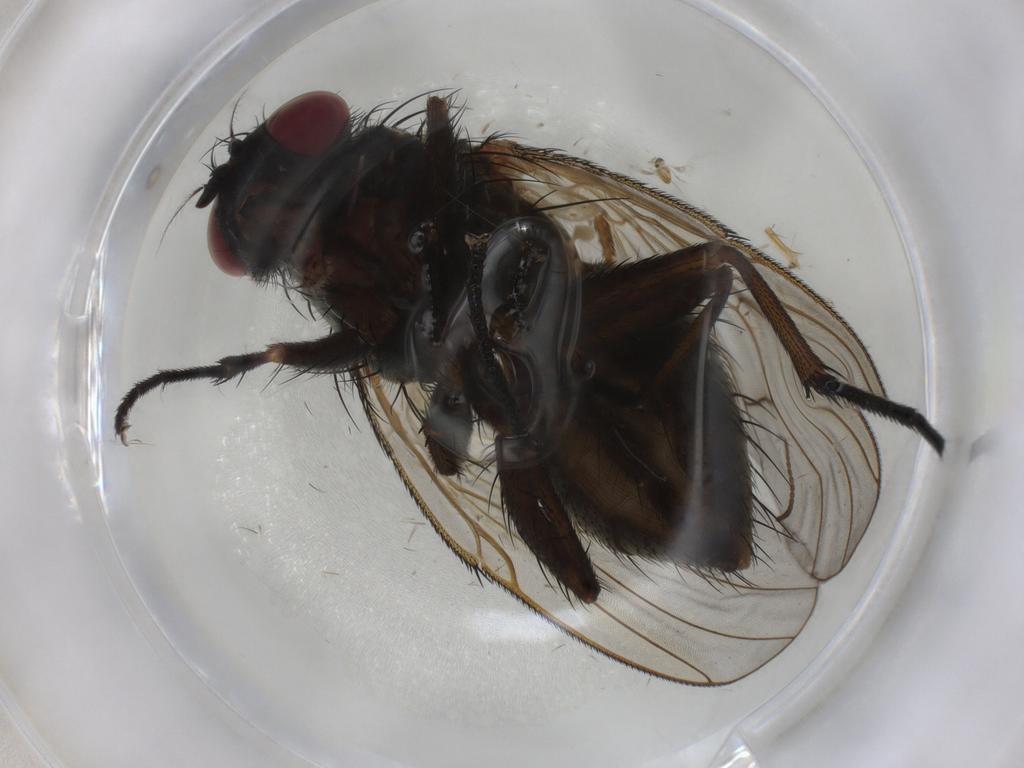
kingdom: Animalia
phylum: Arthropoda
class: Insecta
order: Diptera
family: Muscidae
